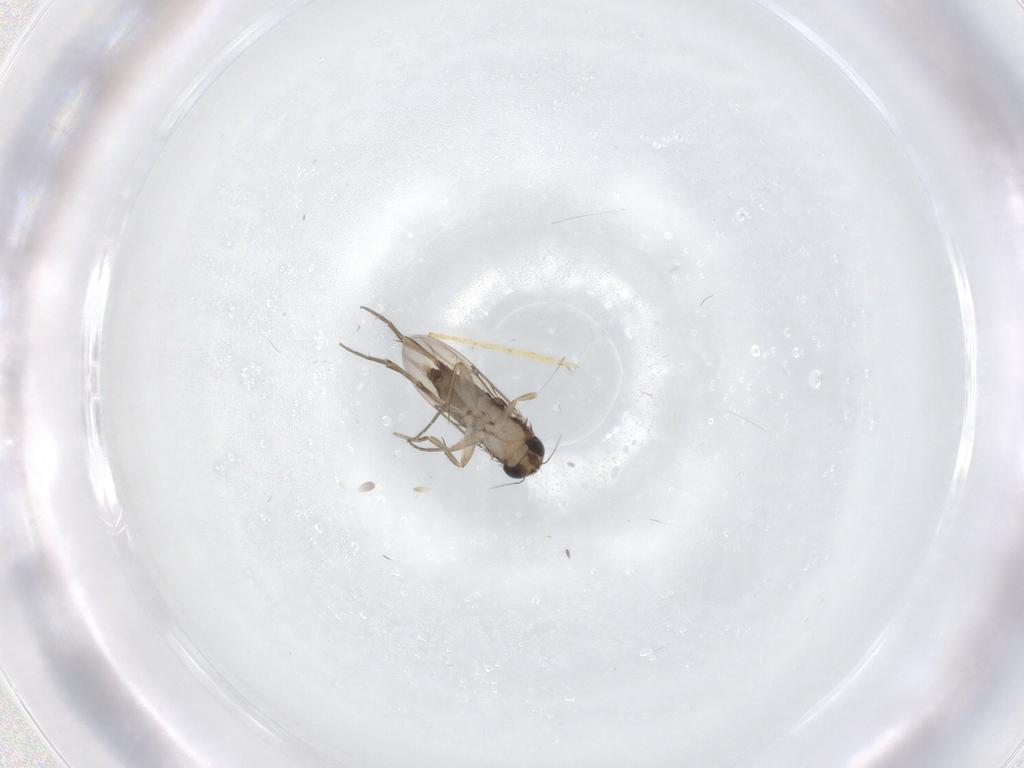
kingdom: Animalia
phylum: Arthropoda
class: Insecta
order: Diptera
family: Phoridae
